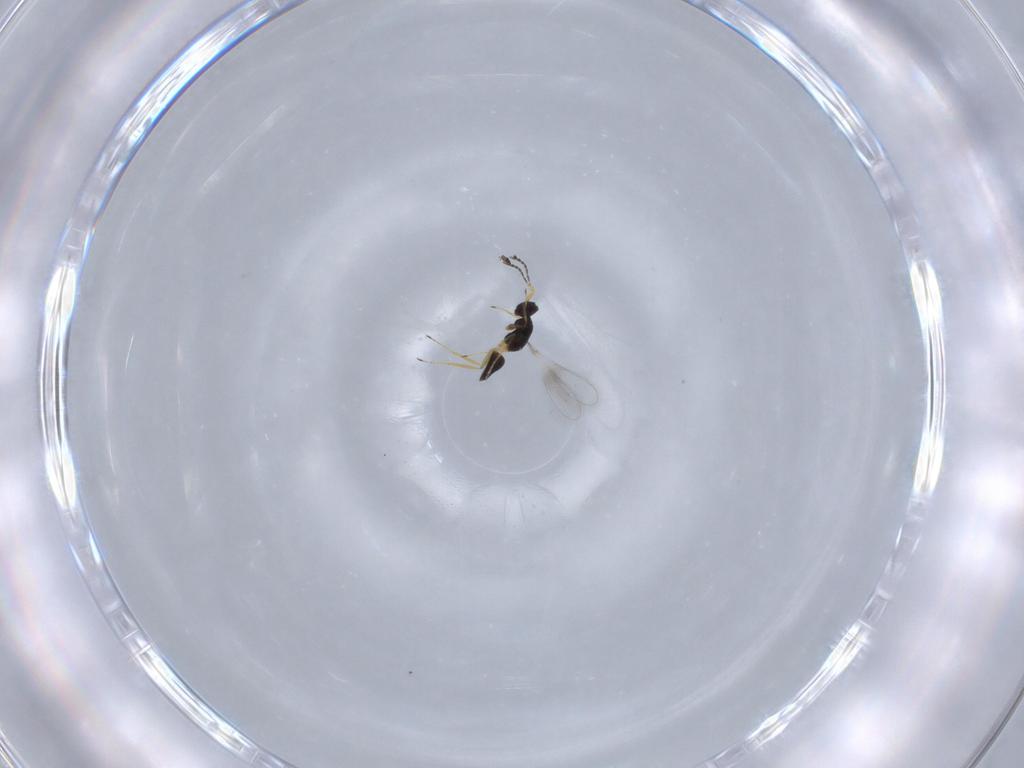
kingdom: Animalia
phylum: Arthropoda
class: Insecta
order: Hymenoptera
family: Mymaridae
